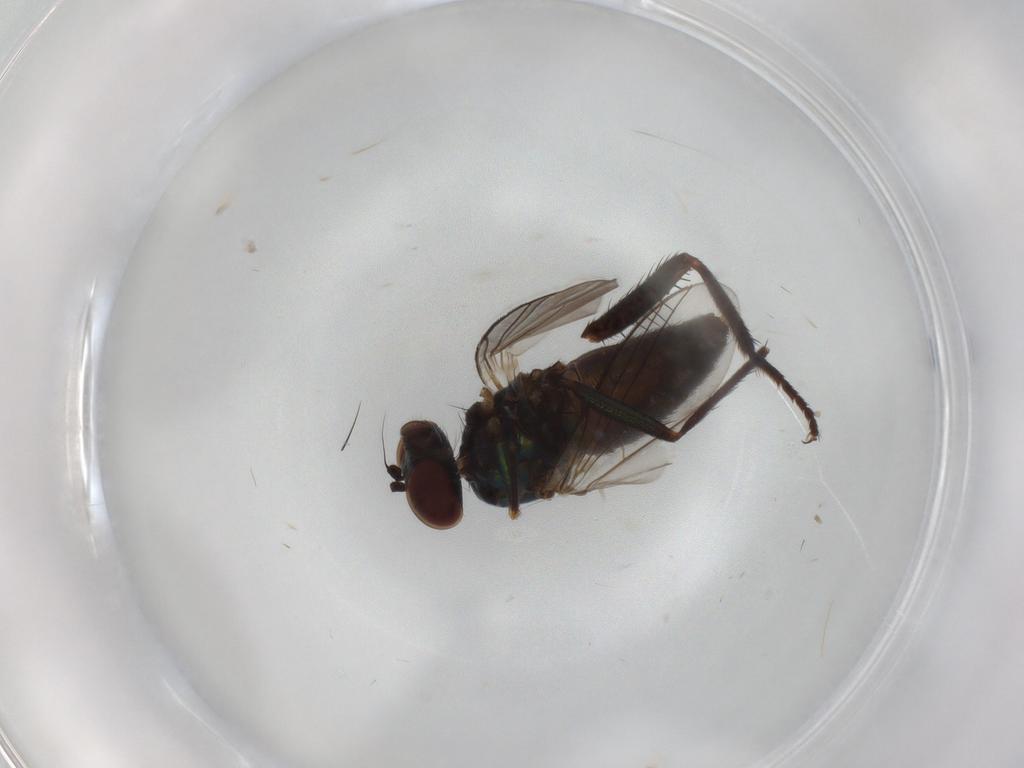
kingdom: Animalia
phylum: Arthropoda
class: Insecta
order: Diptera
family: Dolichopodidae
